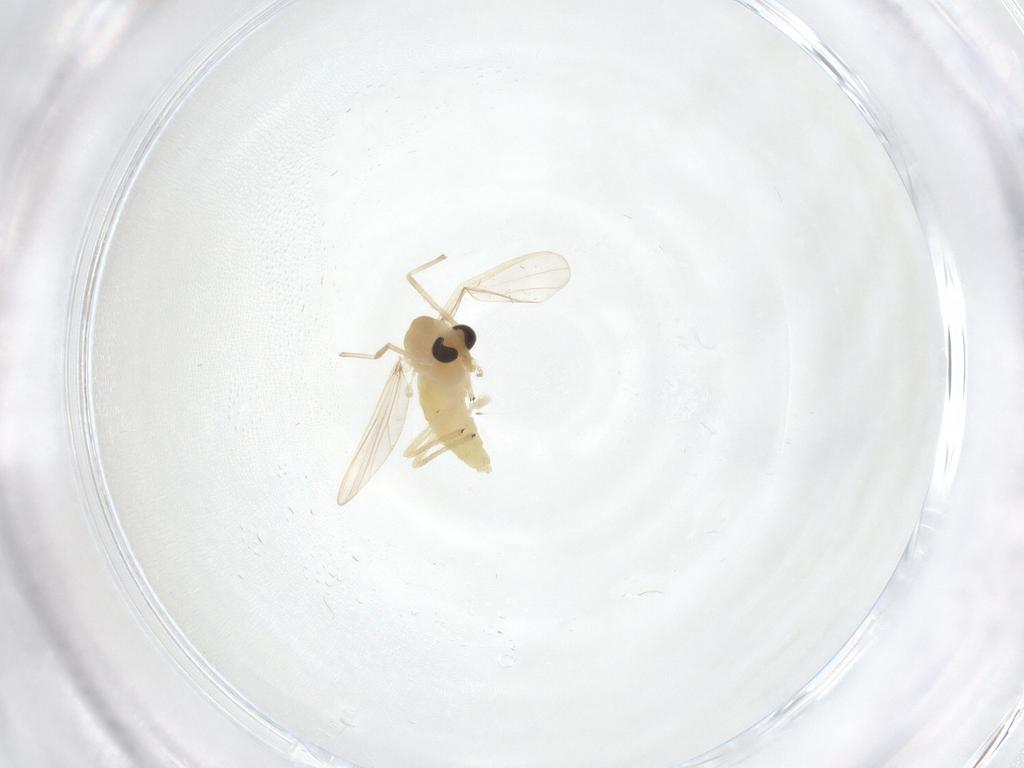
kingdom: Animalia
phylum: Arthropoda
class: Insecta
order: Diptera
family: Chironomidae
